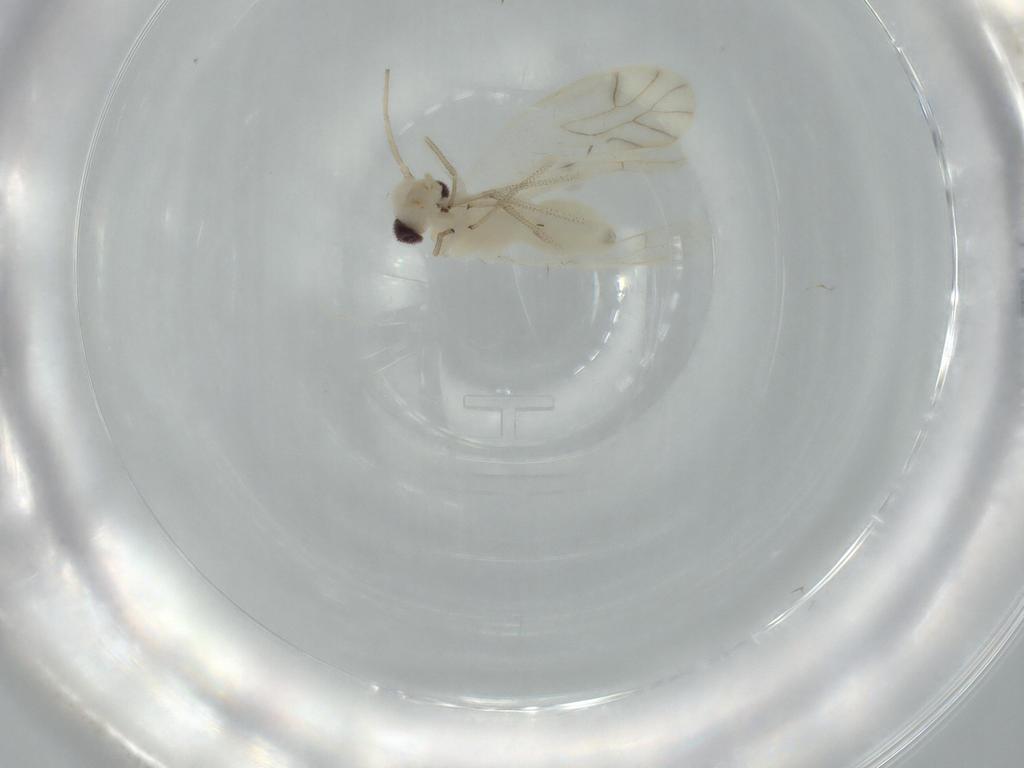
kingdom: Animalia
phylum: Arthropoda
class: Insecta
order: Psocodea
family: Caeciliusidae
